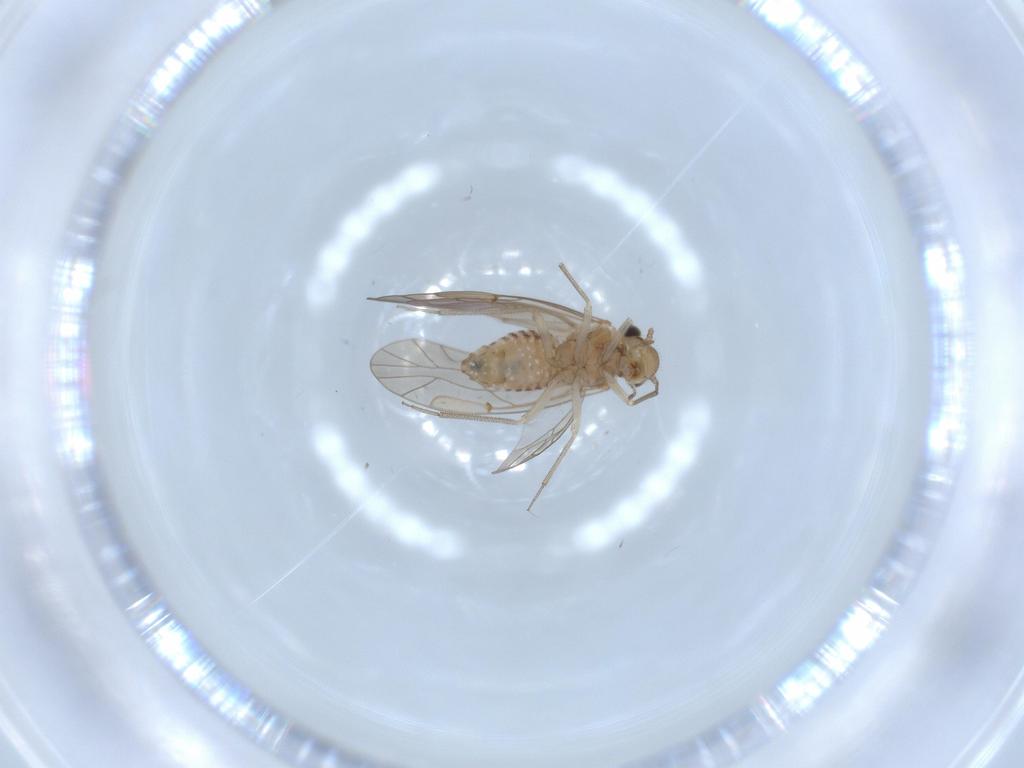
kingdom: Animalia
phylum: Arthropoda
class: Insecta
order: Psocodea
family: Lachesillidae
